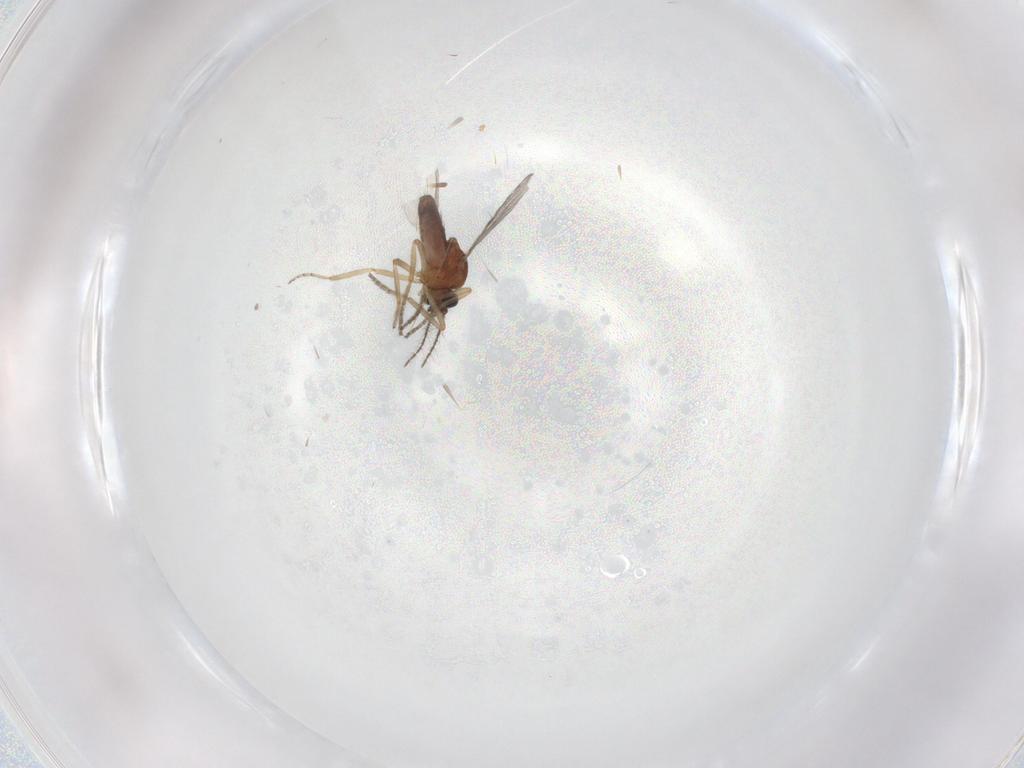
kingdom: Animalia
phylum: Arthropoda
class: Insecta
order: Diptera
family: Ceratopogonidae
